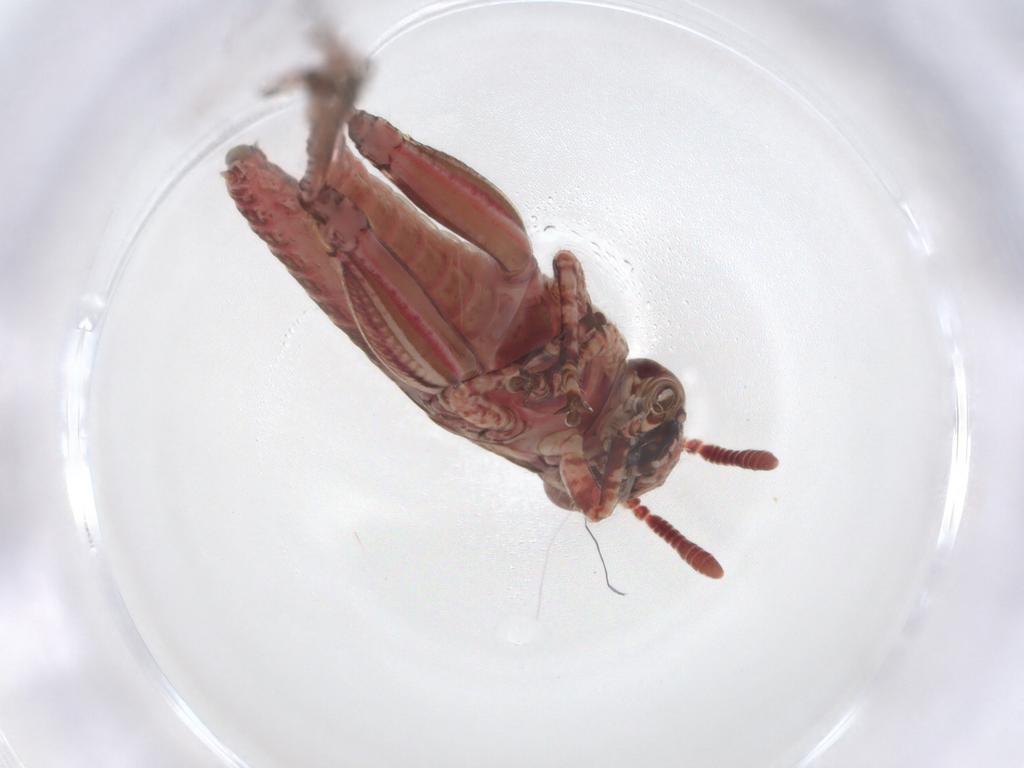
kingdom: Animalia
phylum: Arthropoda
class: Insecta
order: Orthoptera
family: Acrididae
